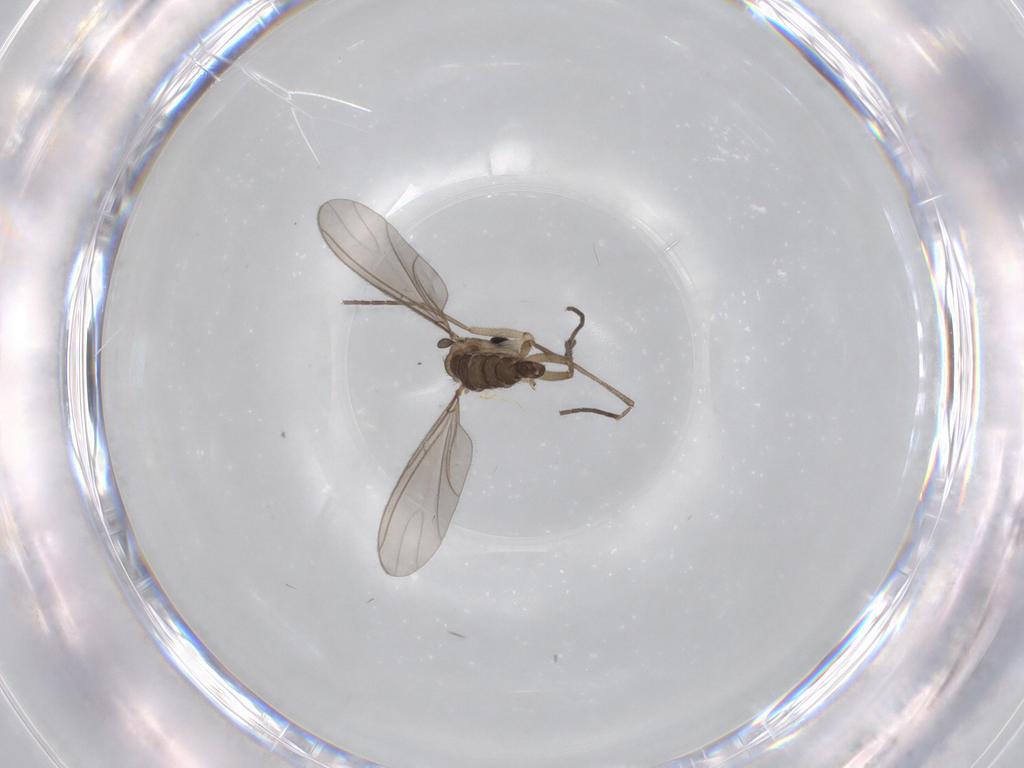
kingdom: Animalia
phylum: Arthropoda
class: Insecta
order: Diptera
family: Sciaridae
